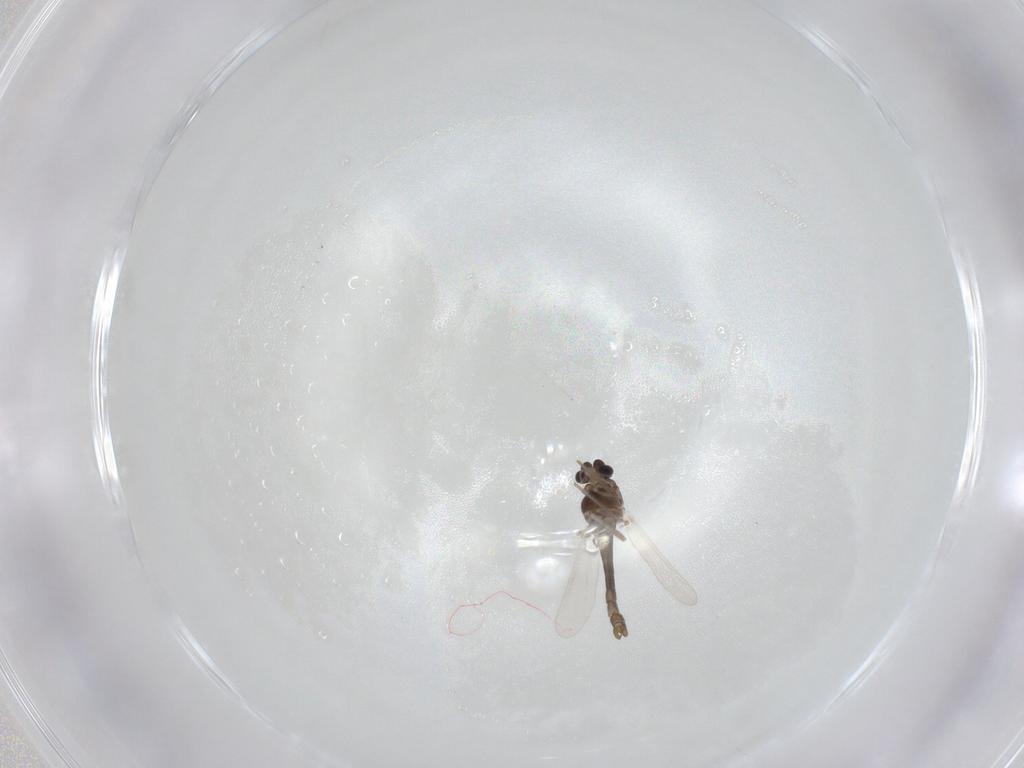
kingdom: Animalia
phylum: Arthropoda
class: Insecta
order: Diptera
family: Chironomidae
